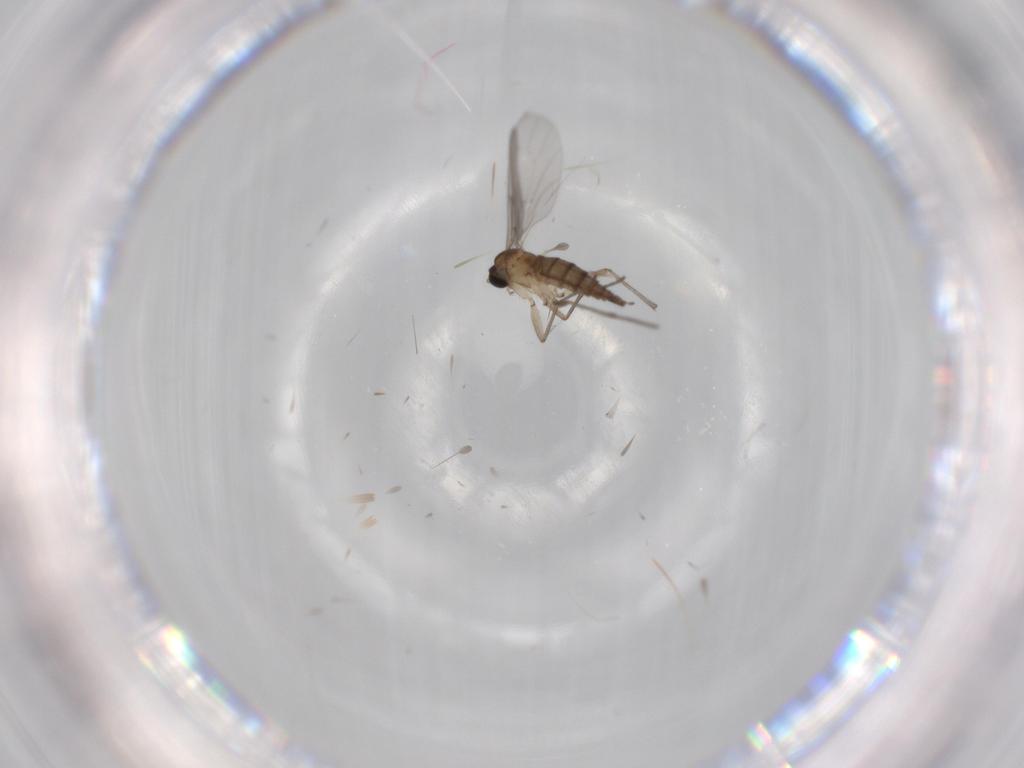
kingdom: Animalia
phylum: Arthropoda
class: Insecta
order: Diptera
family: Sciaridae
